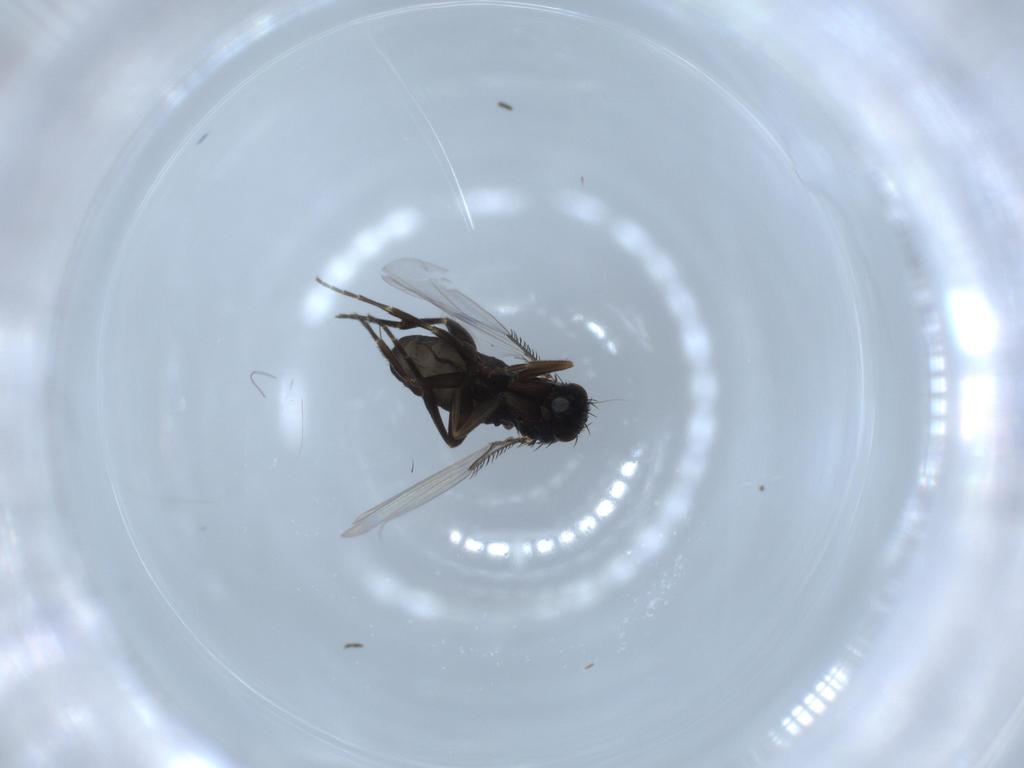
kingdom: Animalia
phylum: Arthropoda
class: Insecta
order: Diptera
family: Phoridae
